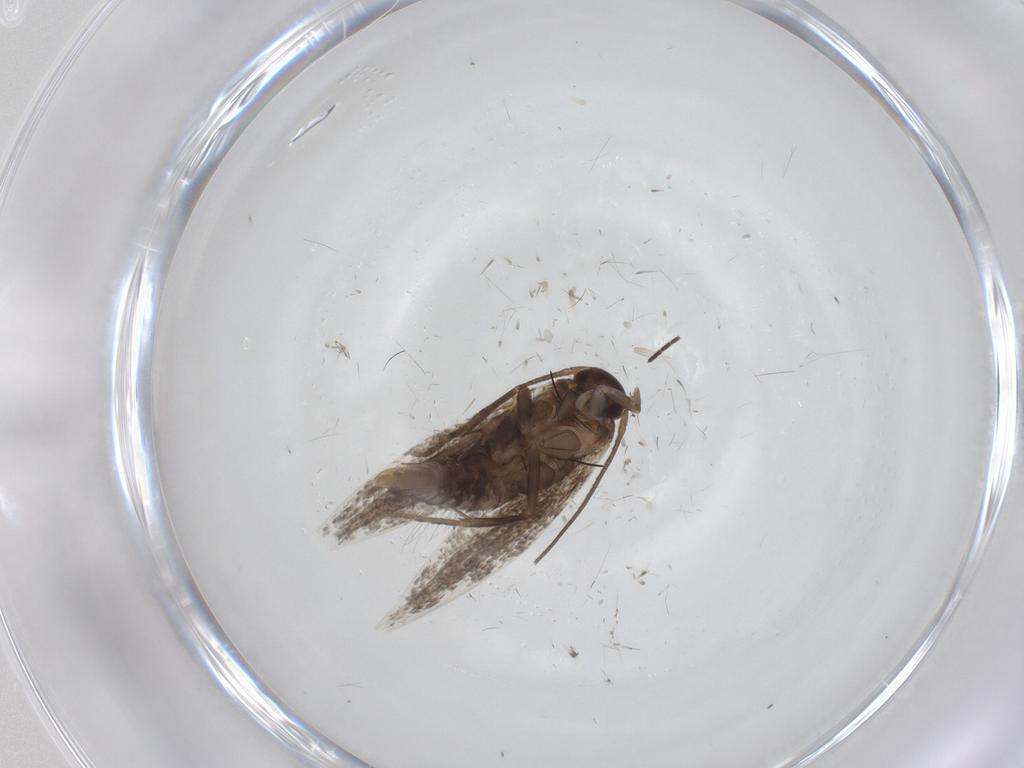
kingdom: Animalia
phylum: Arthropoda
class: Insecta
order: Lepidoptera
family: Elachistidae
